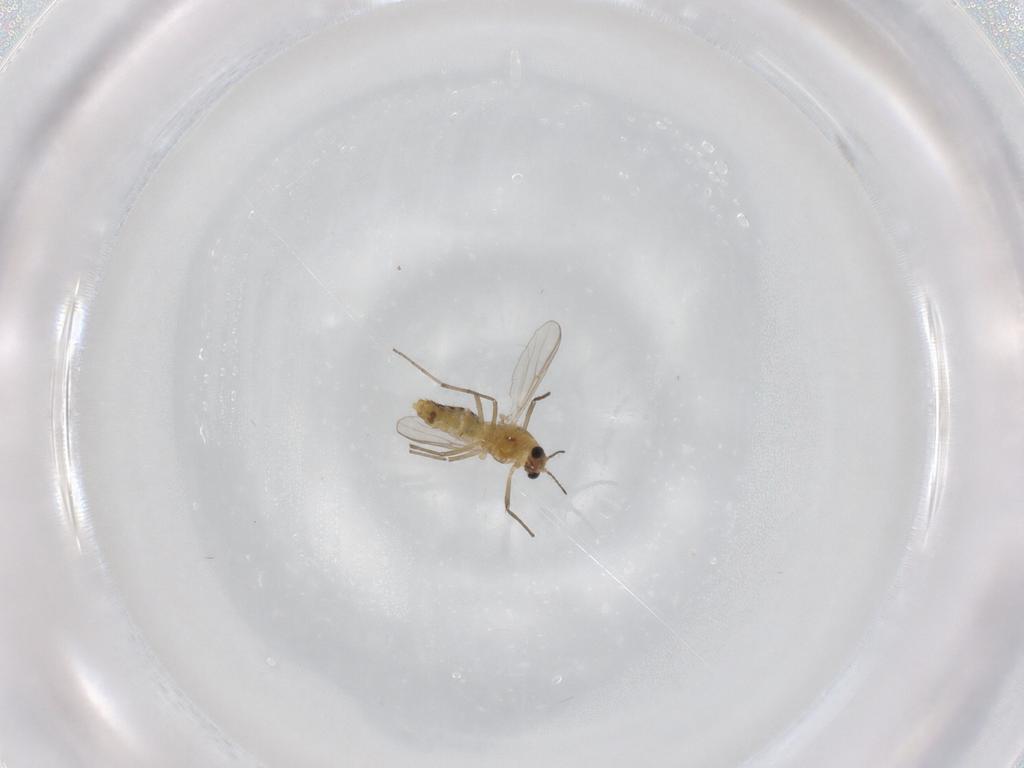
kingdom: Animalia
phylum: Arthropoda
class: Insecta
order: Diptera
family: Sciaridae
